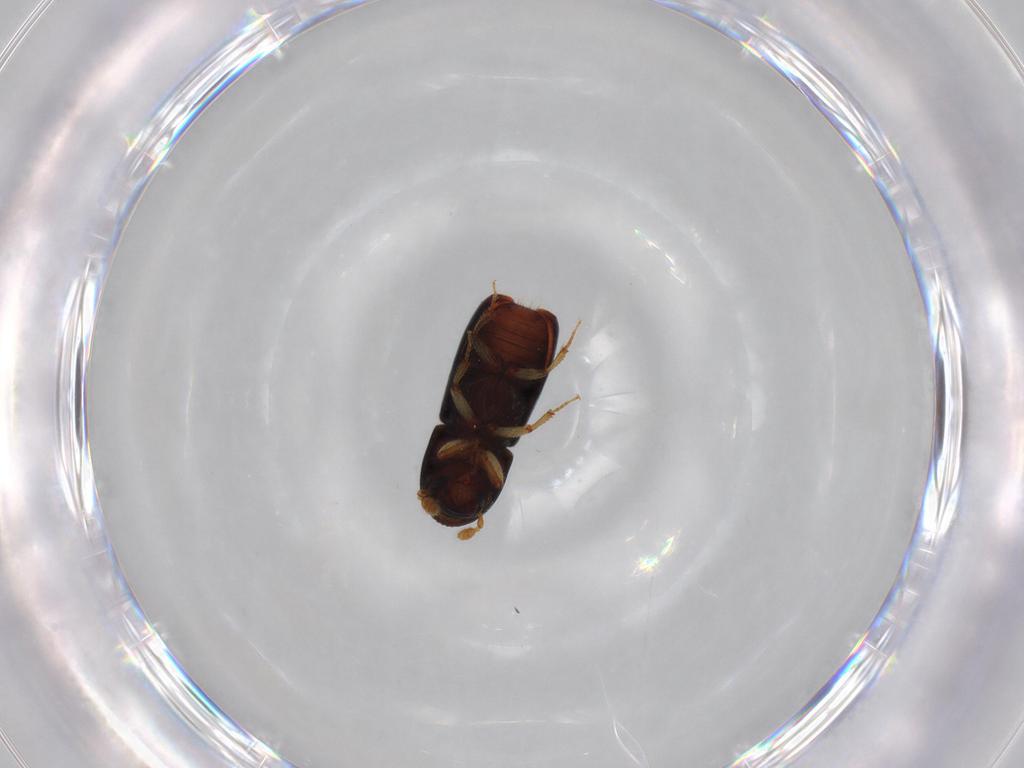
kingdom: Animalia
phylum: Arthropoda
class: Insecta
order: Coleoptera
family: Curculionidae
